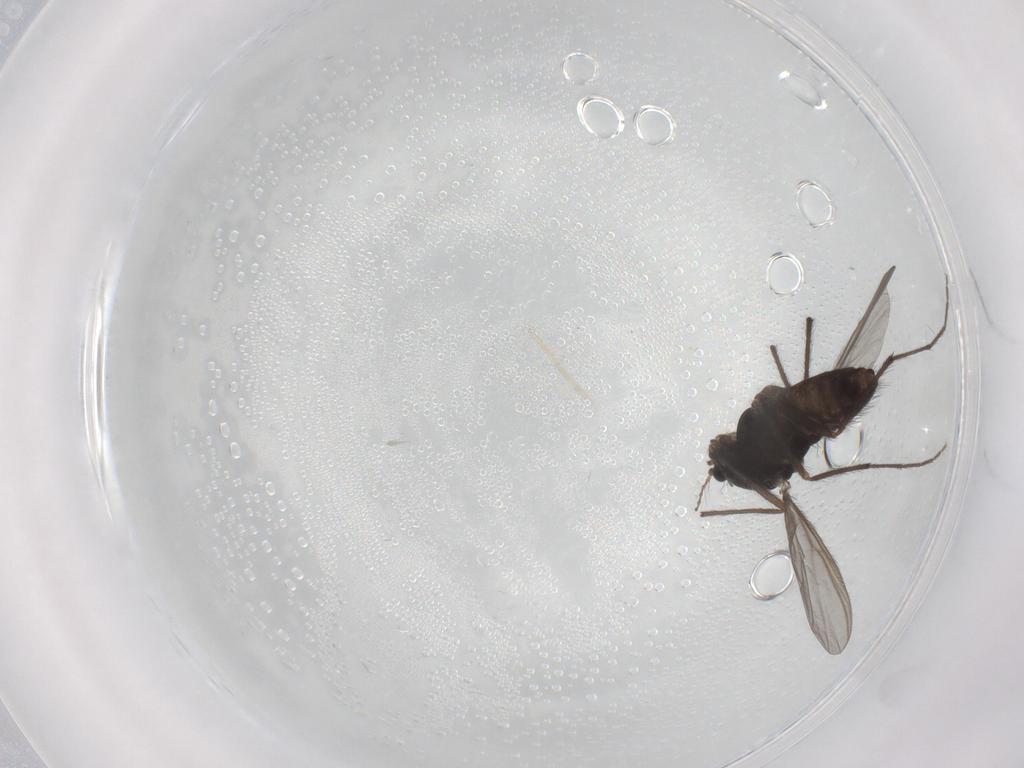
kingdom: Animalia
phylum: Arthropoda
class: Insecta
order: Diptera
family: Chironomidae
